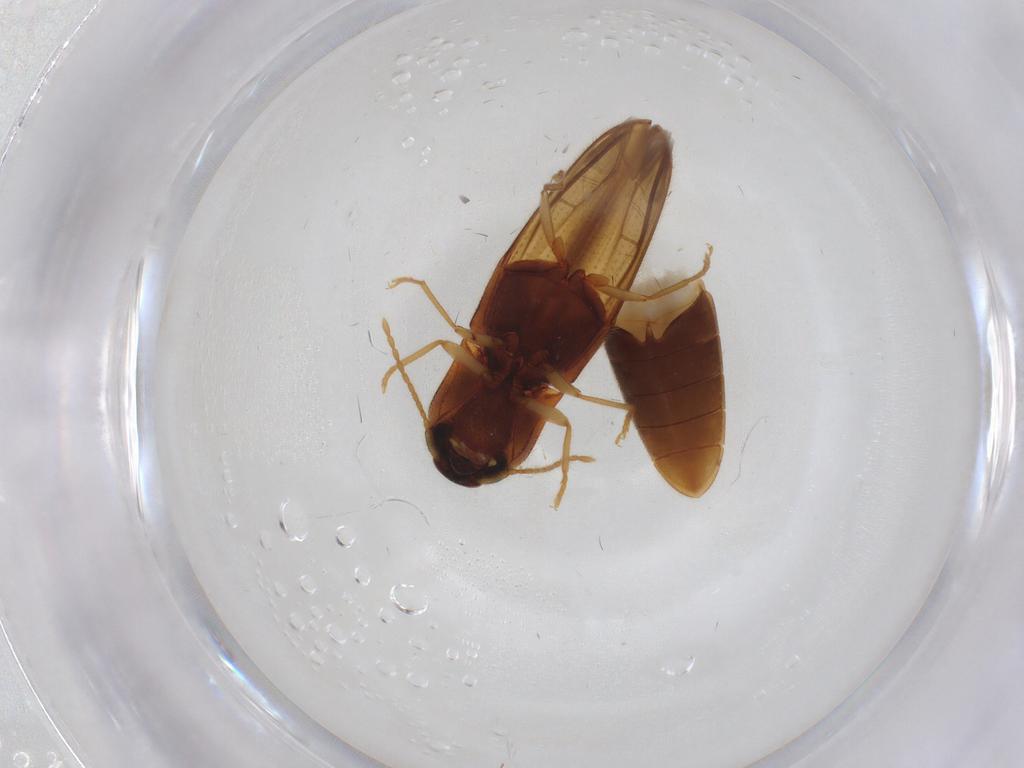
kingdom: Animalia
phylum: Arthropoda
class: Insecta
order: Coleoptera
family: Elateridae
